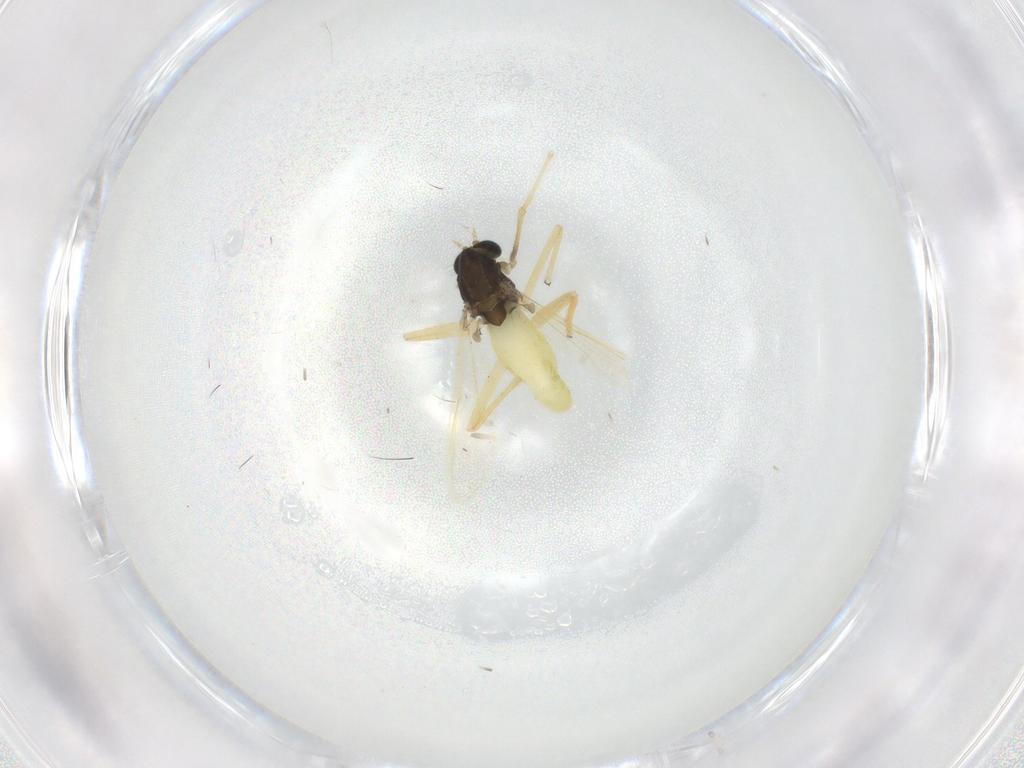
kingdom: Animalia
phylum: Arthropoda
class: Insecta
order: Diptera
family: Chironomidae
